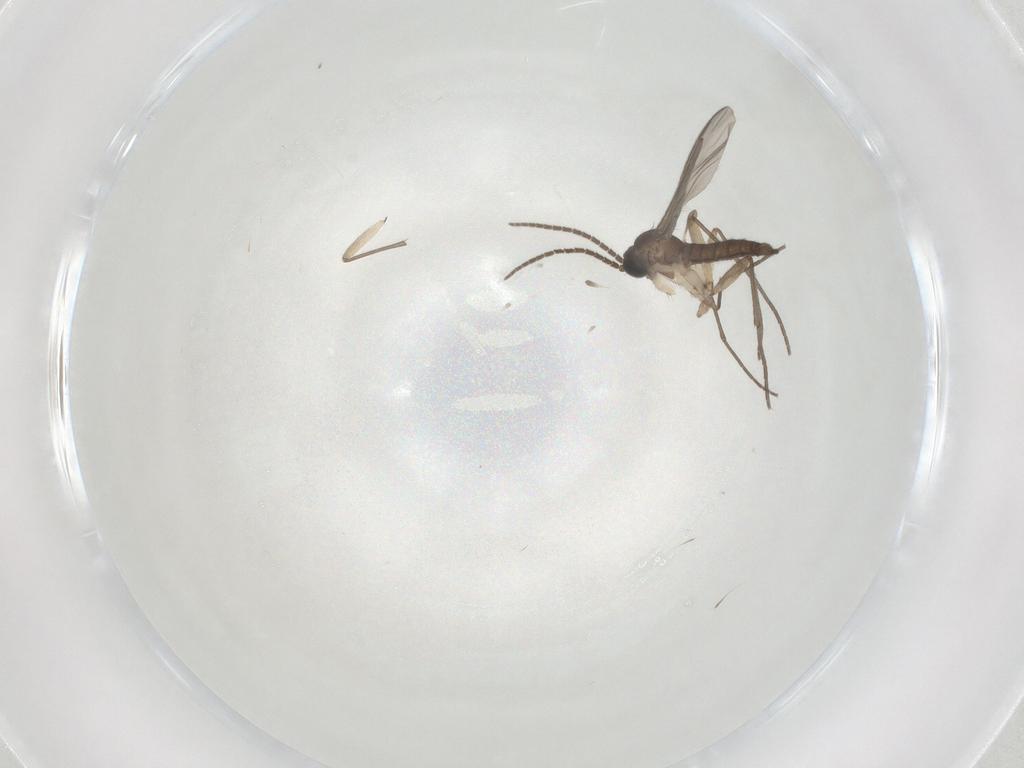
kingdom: Animalia
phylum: Arthropoda
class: Insecta
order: Diptera
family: Sciaridae
